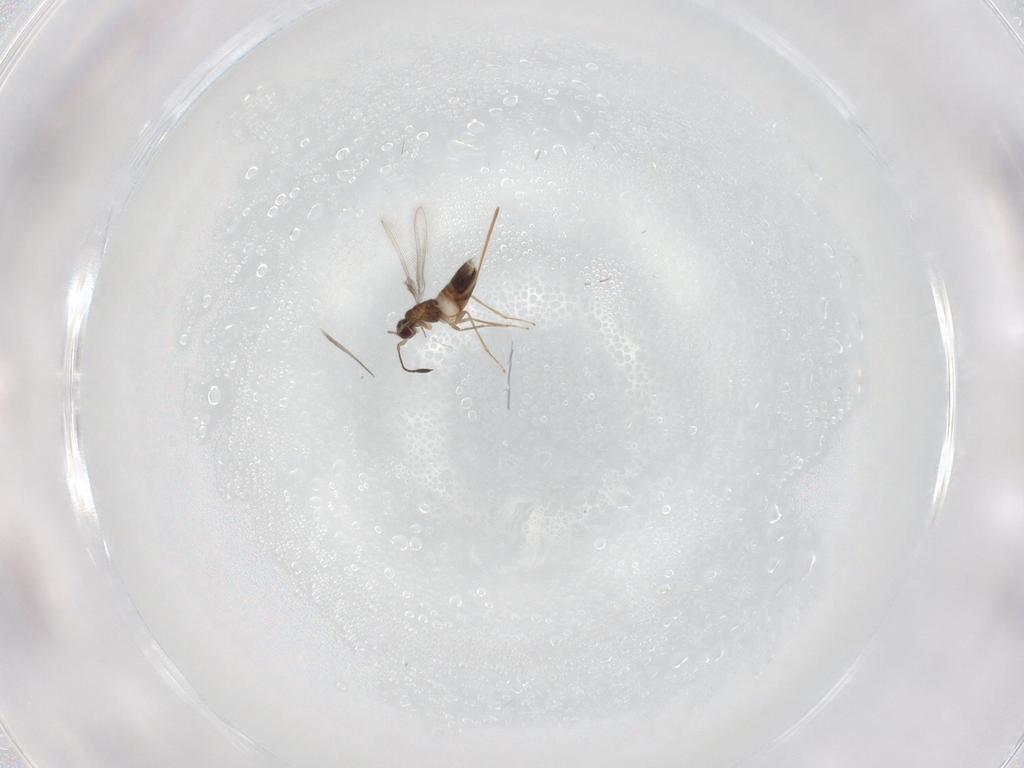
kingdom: Animalia
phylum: Arthropoda
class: Insecta
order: Hymenoptera
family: Mymaridae
